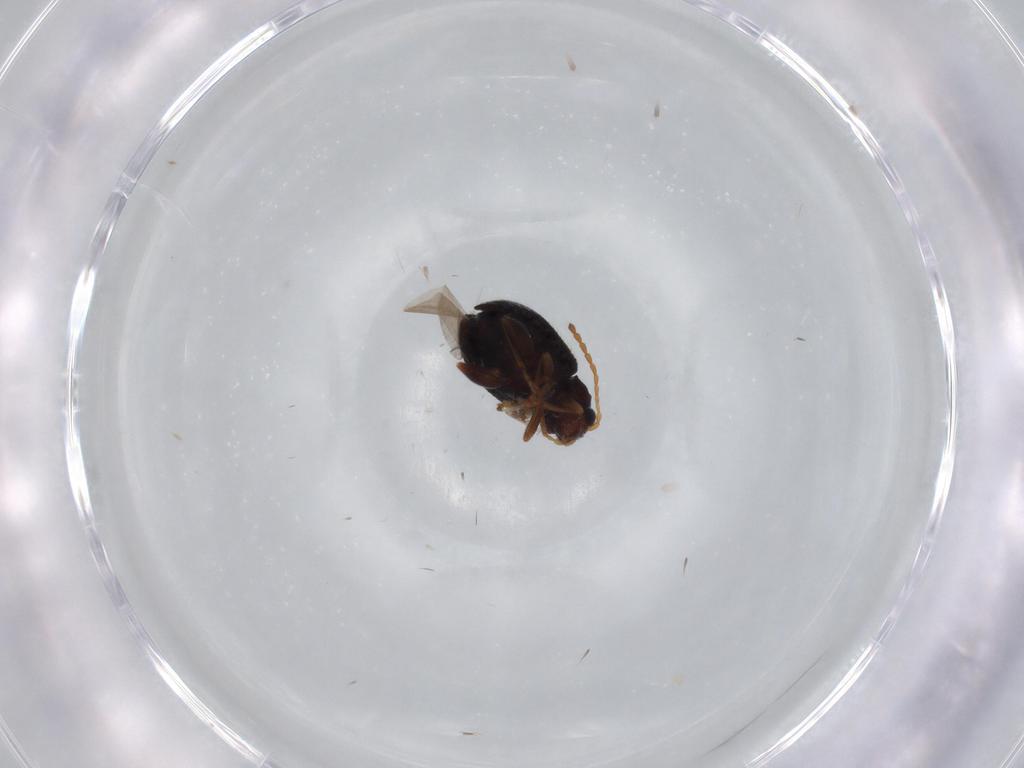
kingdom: Animalia
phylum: Arthropoda
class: Insecta
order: Coleoptera
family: Chrysomelidae
